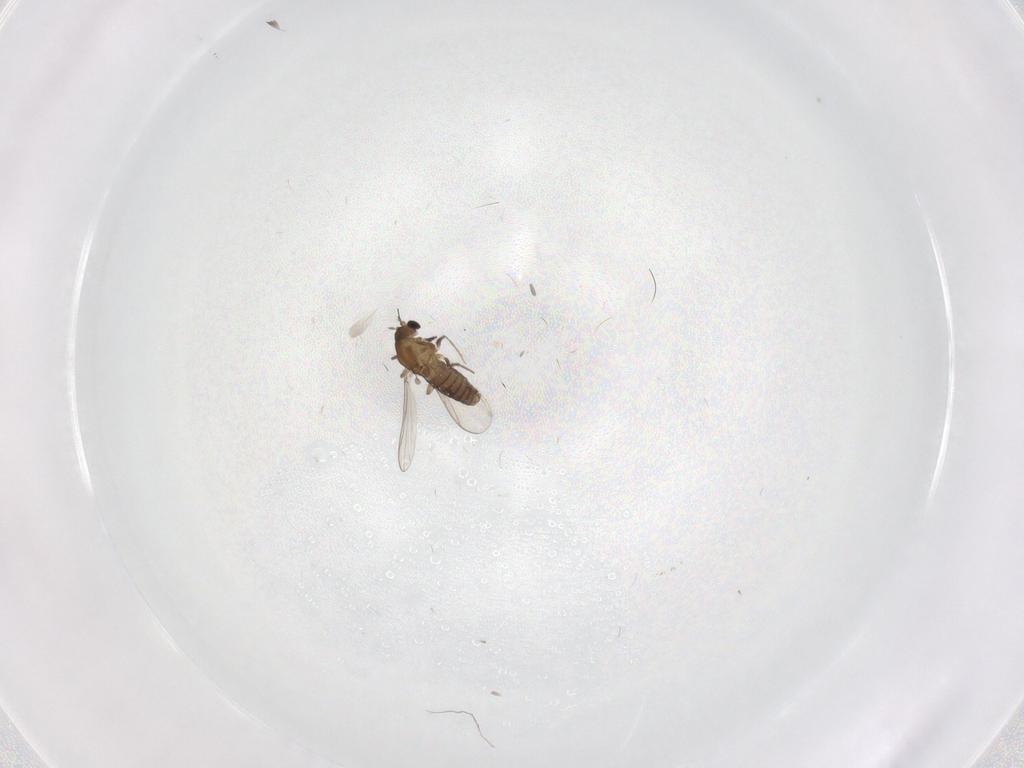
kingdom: Animalia
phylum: Arthropoda
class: Insecta
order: Diptera
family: Chironomidae
